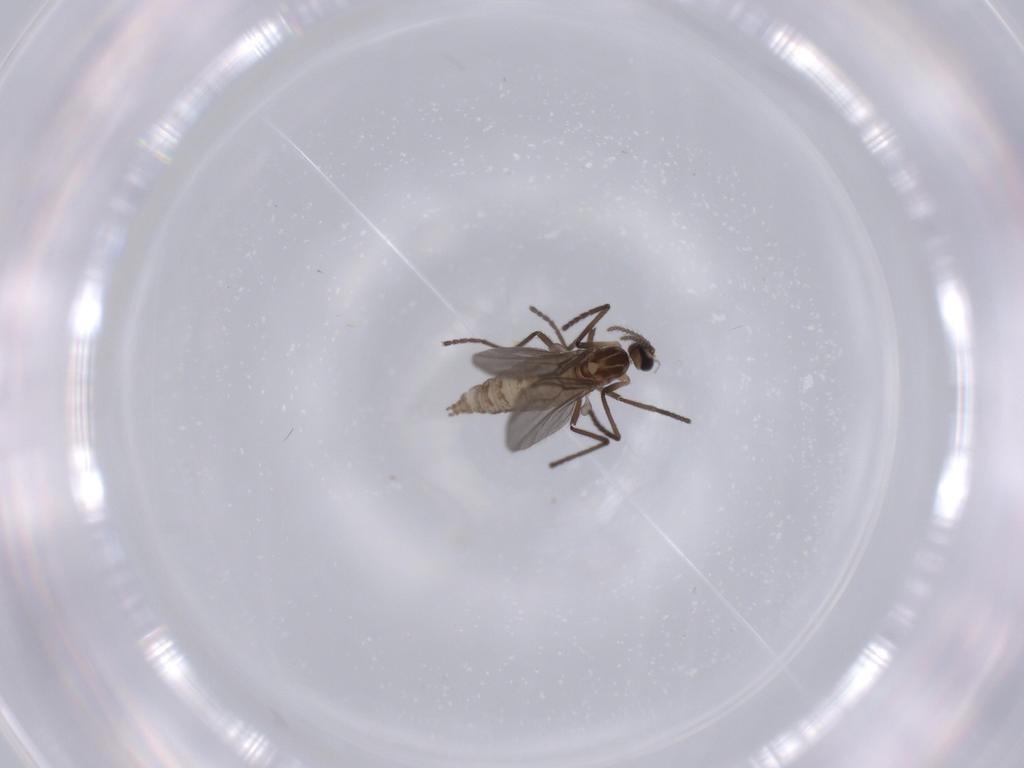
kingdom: Animalia
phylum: Arthropoda
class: Insecta
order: Diptera
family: Cecidomyiidae
